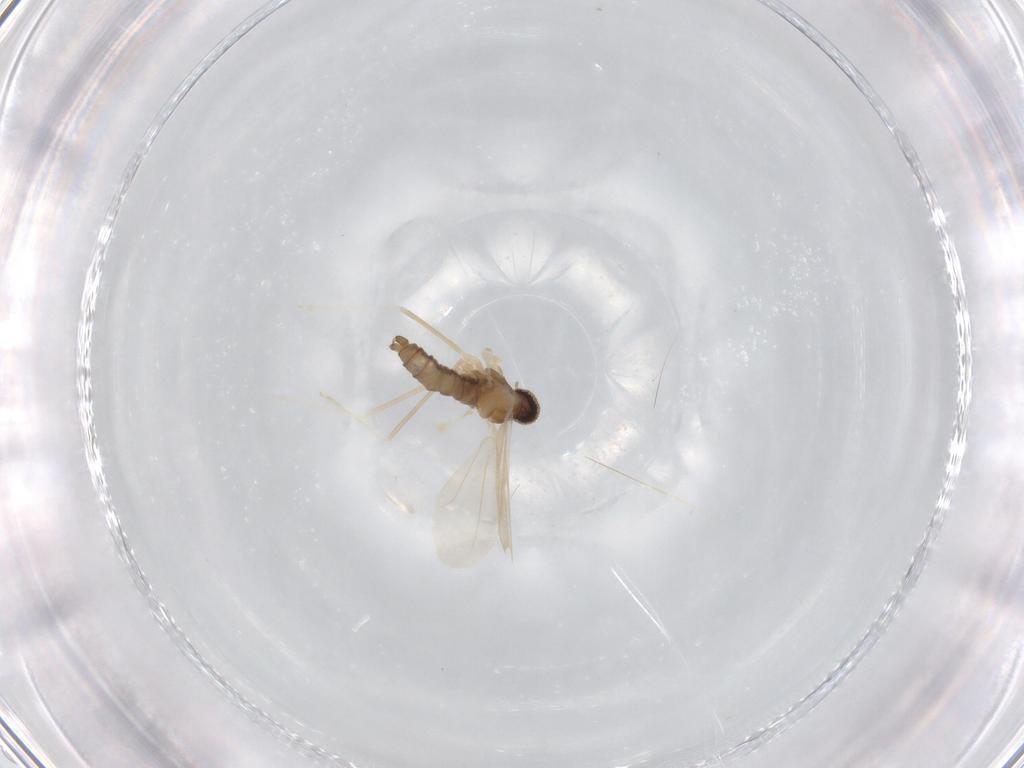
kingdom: Animalia
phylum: Arthropoda
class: Insecta
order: Diptera
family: Cecidomyiidae
